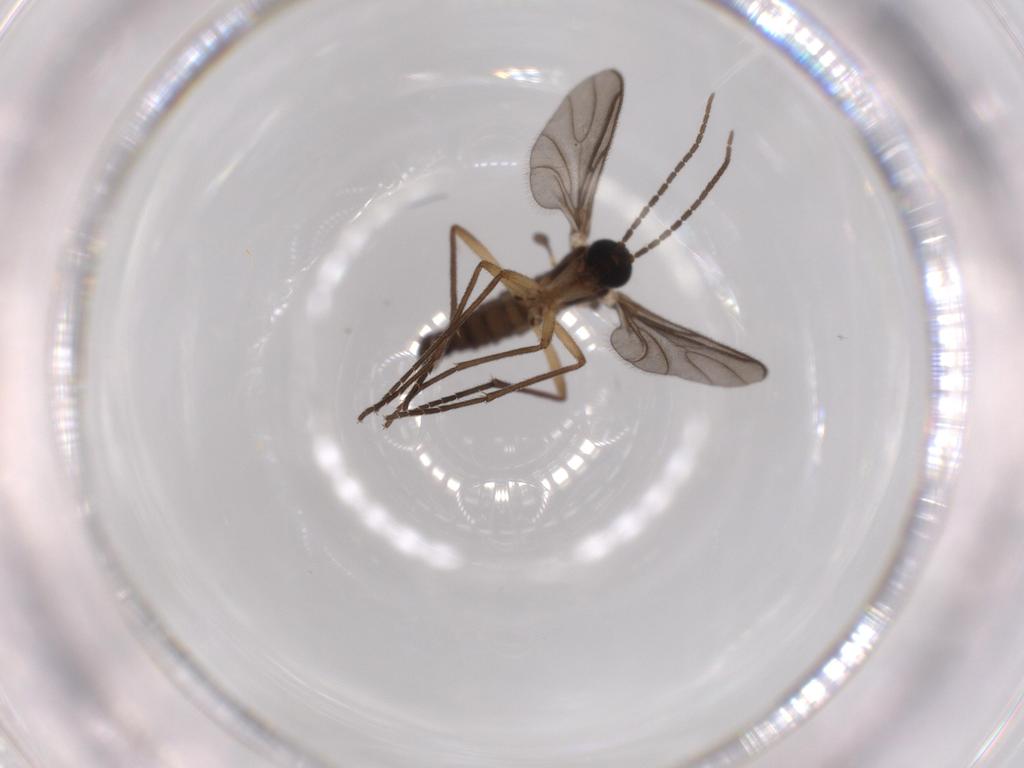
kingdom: Animalia
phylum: Arthropoda
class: Insecta
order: Diptera
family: Sciaridae
